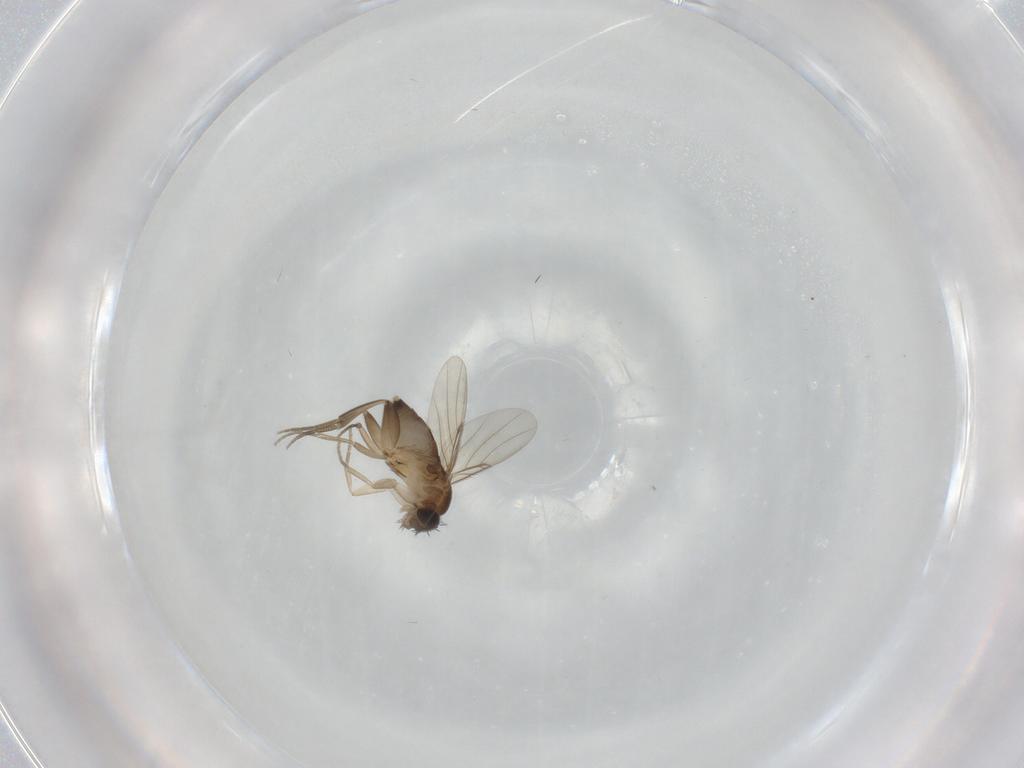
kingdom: Animalia
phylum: Arthropoda
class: Insecta
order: Diptera
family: Phoridae
